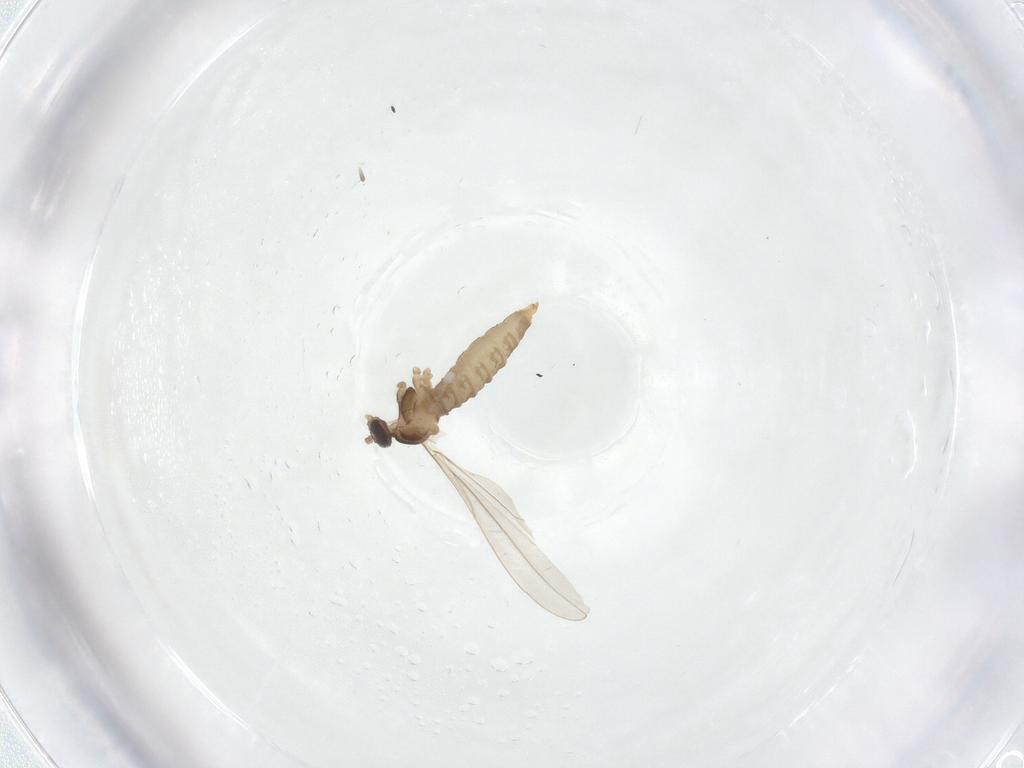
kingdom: Animalia
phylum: Arthropoda
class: Insecta
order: Diptera
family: Cecidomyiidae
